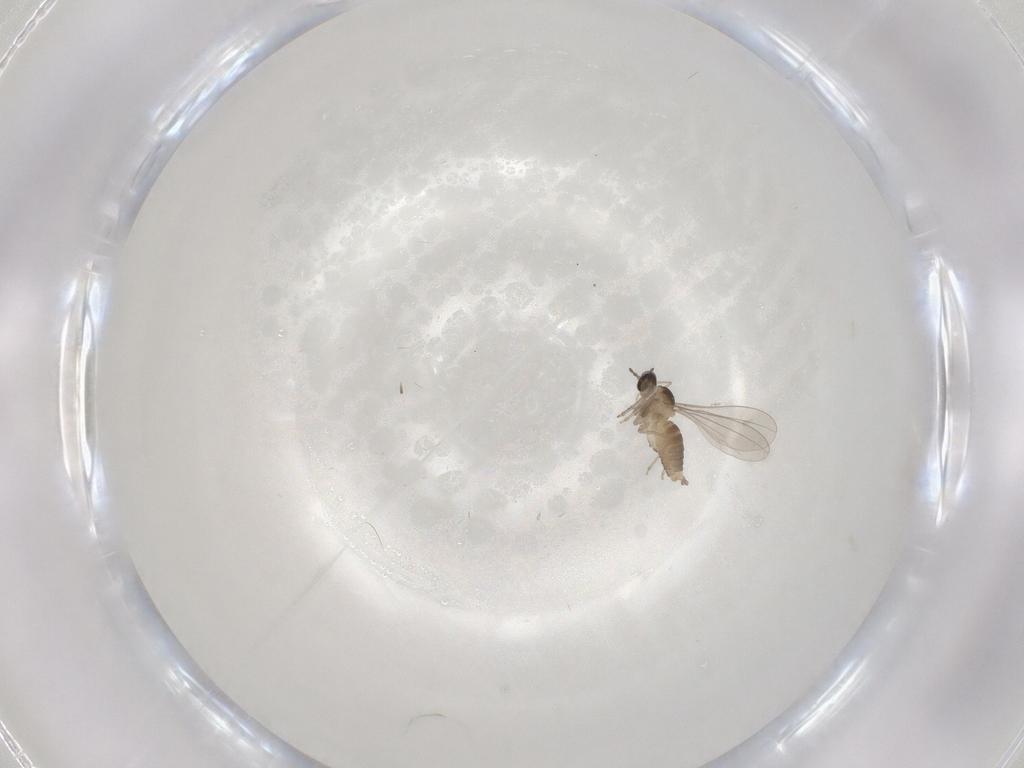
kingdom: Animalia
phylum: Arthropoda
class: Insecta
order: Diptera
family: Cecidomyiidae
